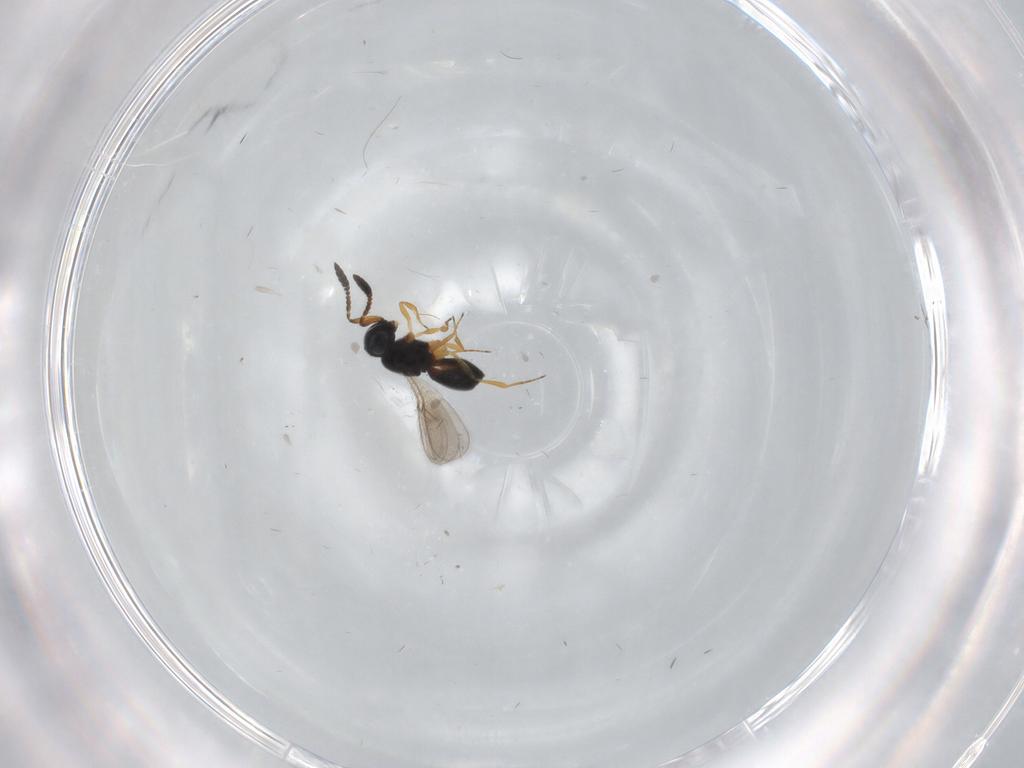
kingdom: Animalia
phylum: Arthropoda
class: Insecta
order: Hymenoptera
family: Scelionidae
